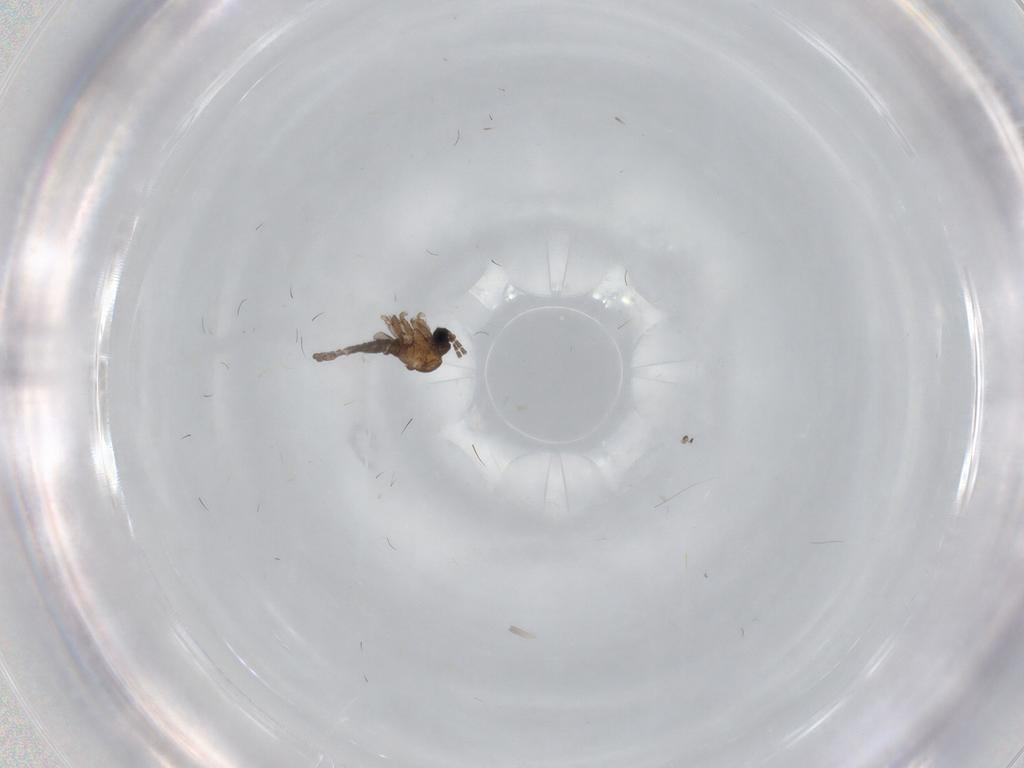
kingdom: Animalia
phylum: Arthropoda
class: Insecta
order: Diptera
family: Sciaridae
